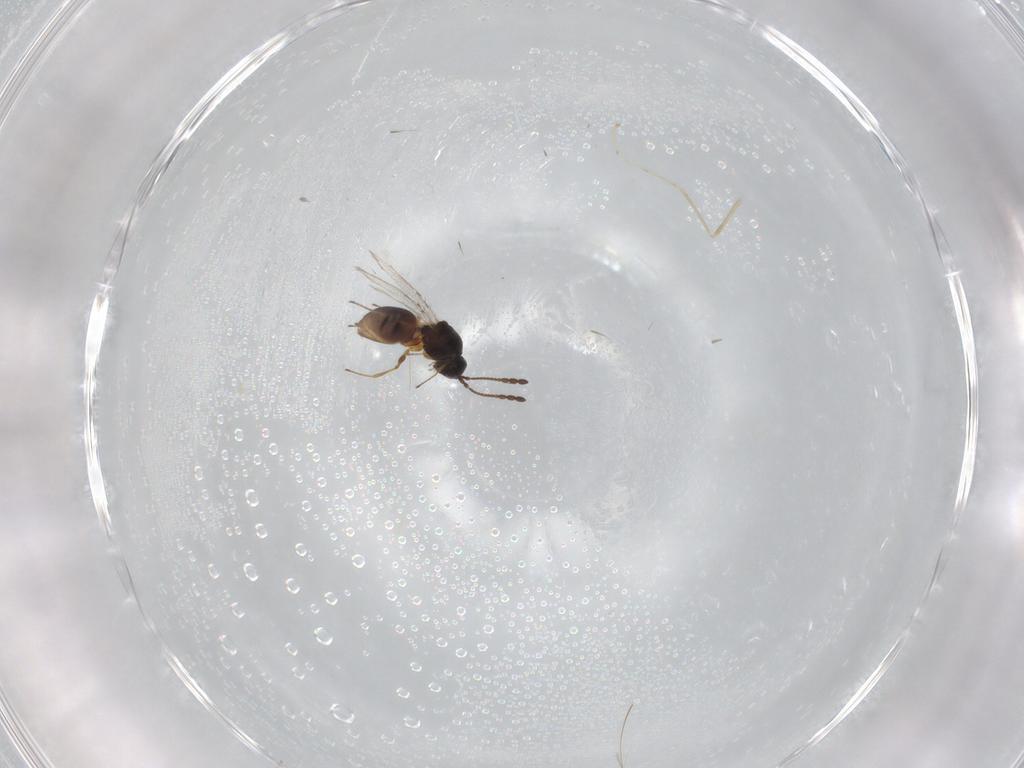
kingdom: Animalia
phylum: Arthropoda
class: Insecta
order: Hymenoptera
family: Figitidae
